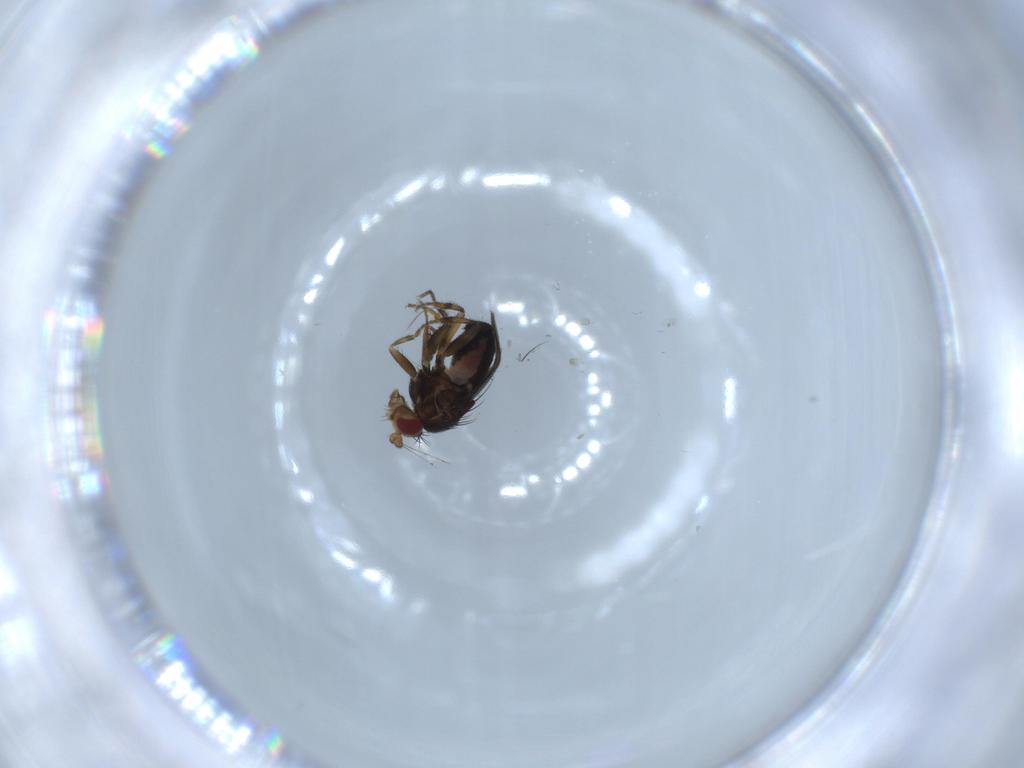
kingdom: Animalia
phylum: Arthropoda
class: Insecta
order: Diptera
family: Sphaeroceridae
